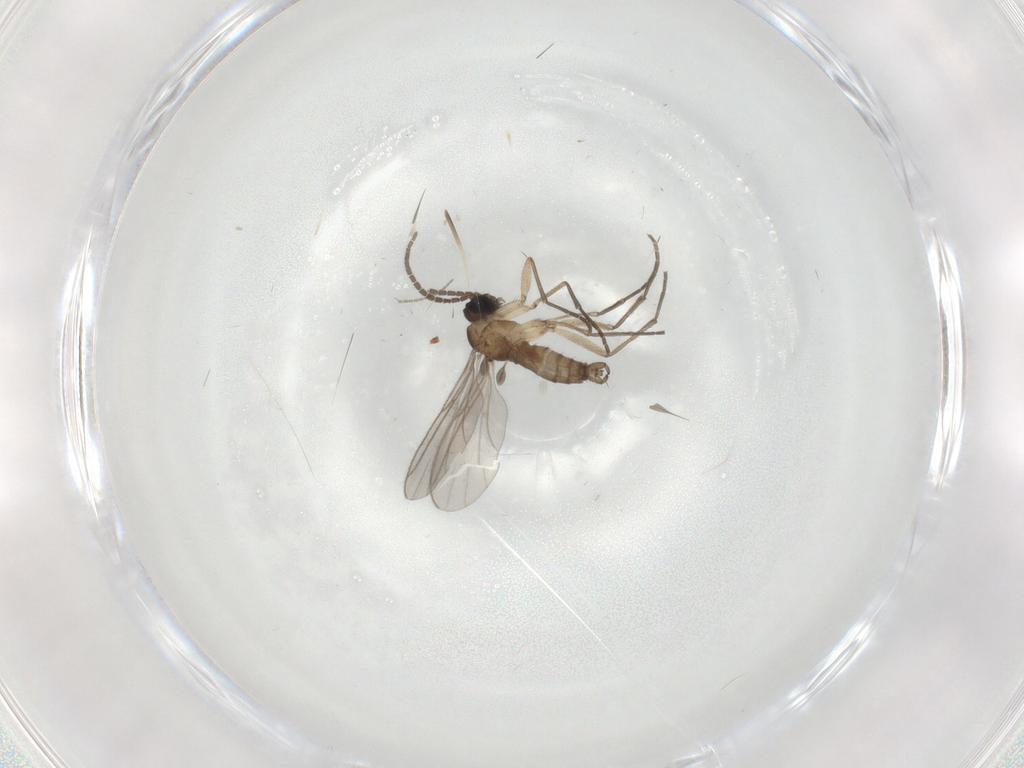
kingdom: Animalia
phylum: Arthropoda
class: Insecta
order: Diptera
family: Sciaridae
